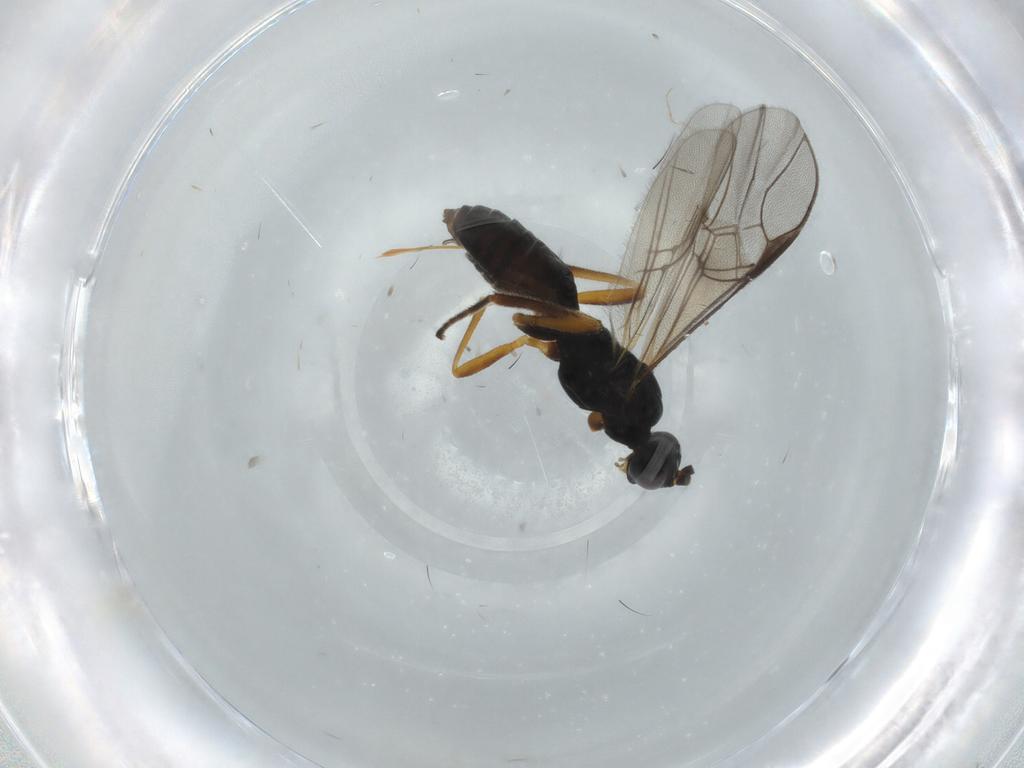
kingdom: Animalia
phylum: Arthropoda
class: Insecta
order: Hymenoptera
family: Braconidae
